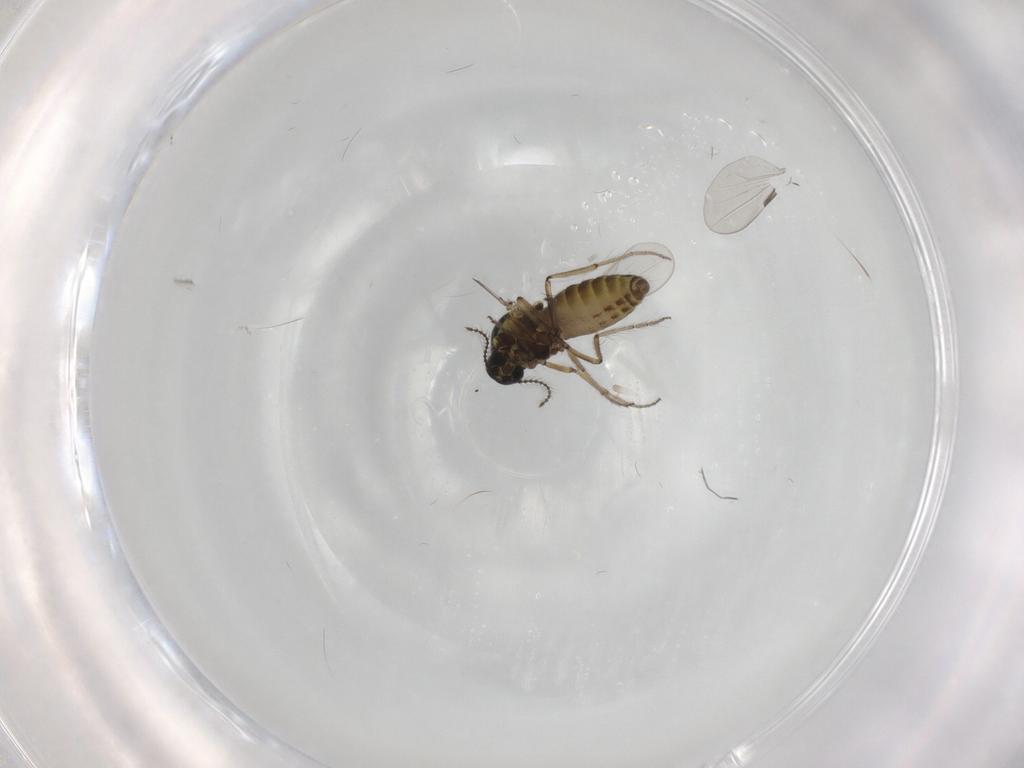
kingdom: Animalia
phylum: Arthropoda
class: Insecta
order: Diptera
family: Ceratopogonidae
